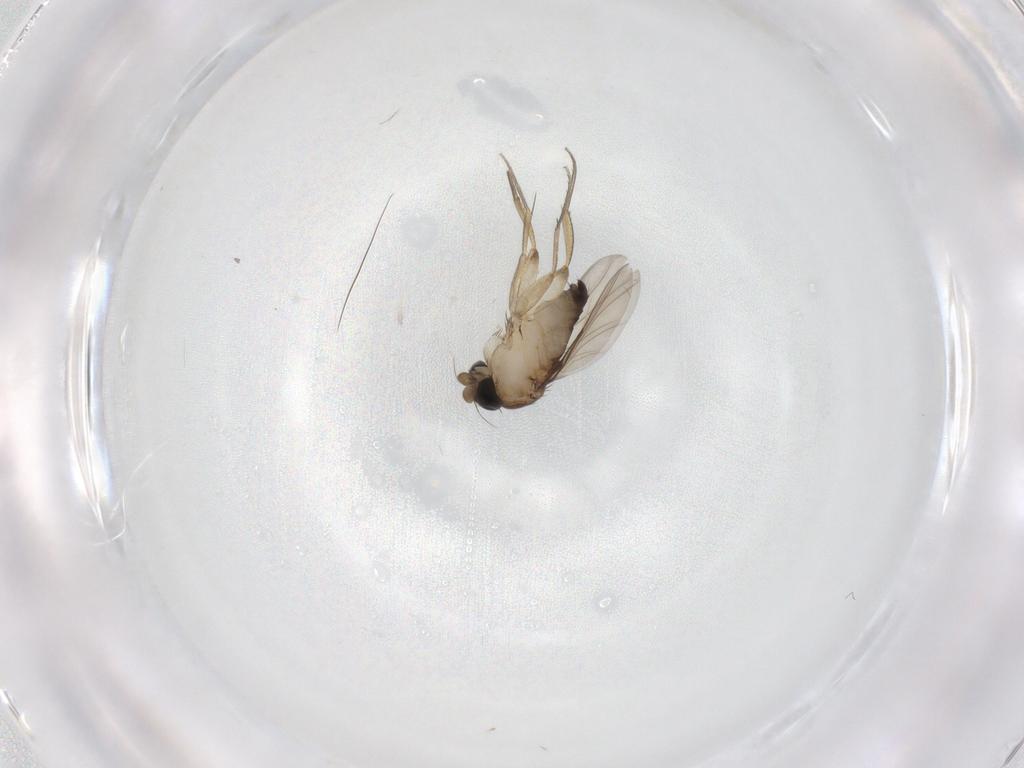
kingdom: Animalia
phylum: Arthropoda
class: Insecta
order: Diptera
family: Phoridae
